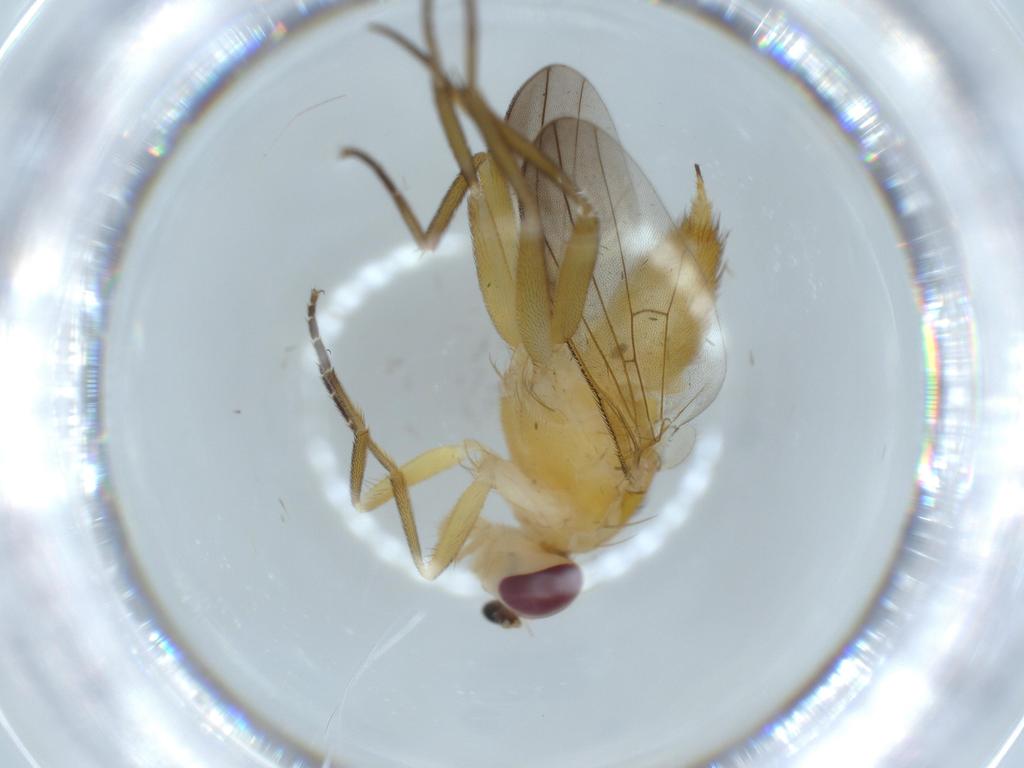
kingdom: Animalia
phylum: Arthropoda
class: Insecta
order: Diptera
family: Clusiidae
